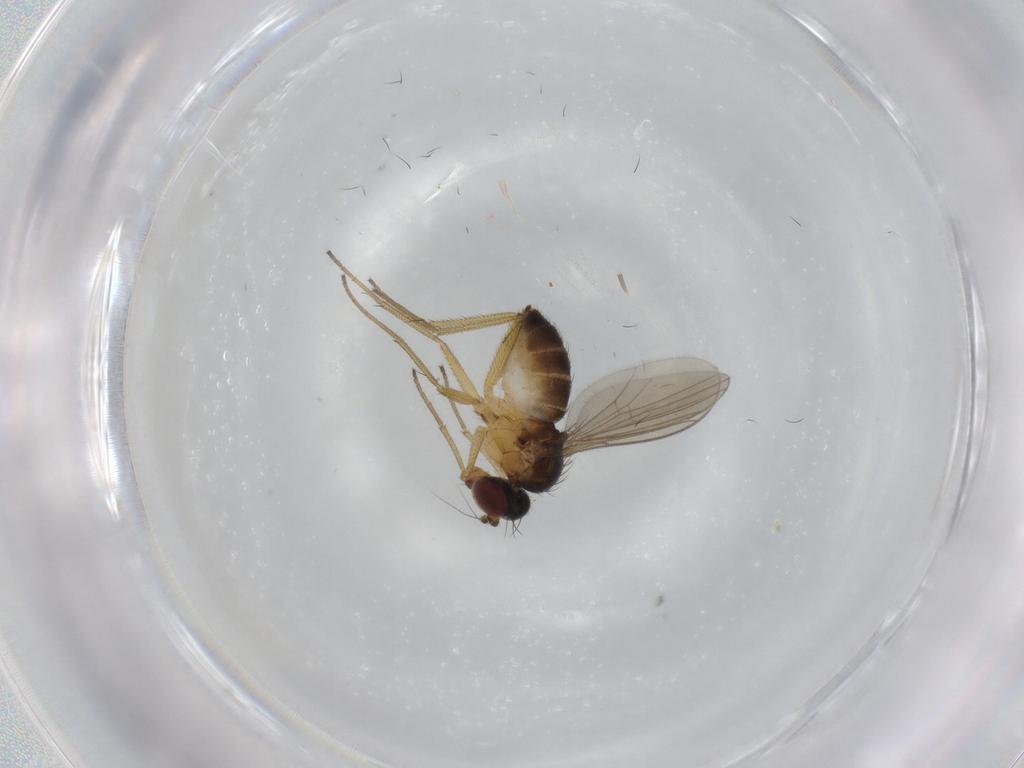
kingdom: Animalia
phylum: Arthropoda
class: Insecta
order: Diptera
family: Dolichopodidae
